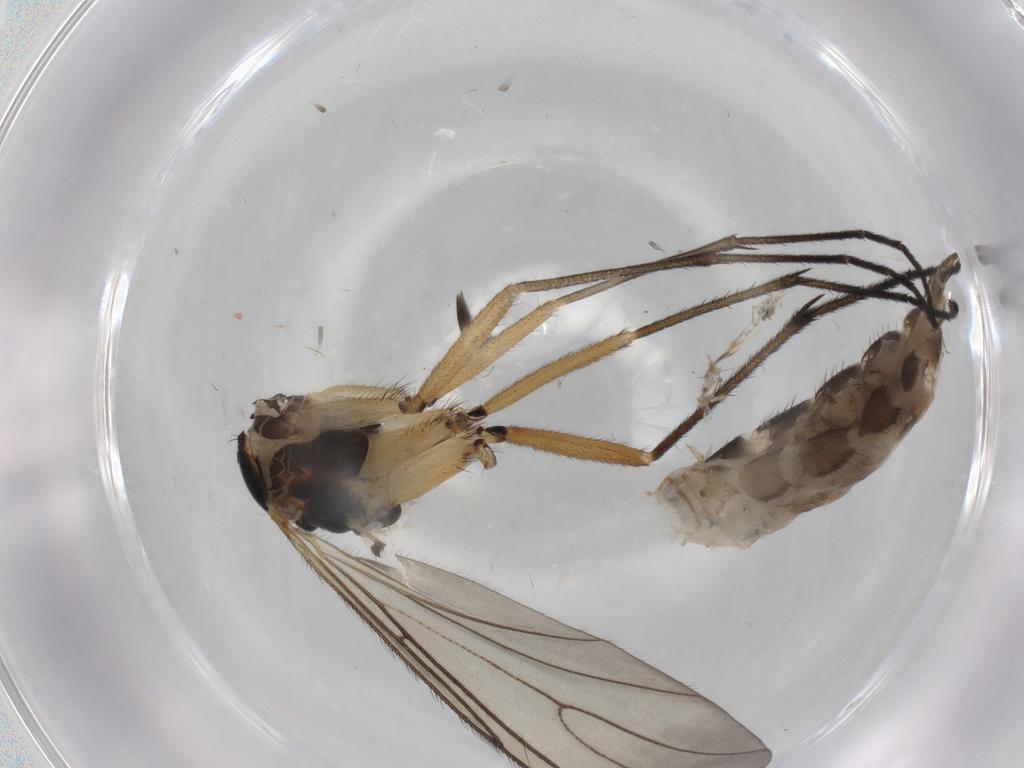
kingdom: Animalia
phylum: Arthropoda
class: Insecta
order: Diptera
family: Sciaridae
